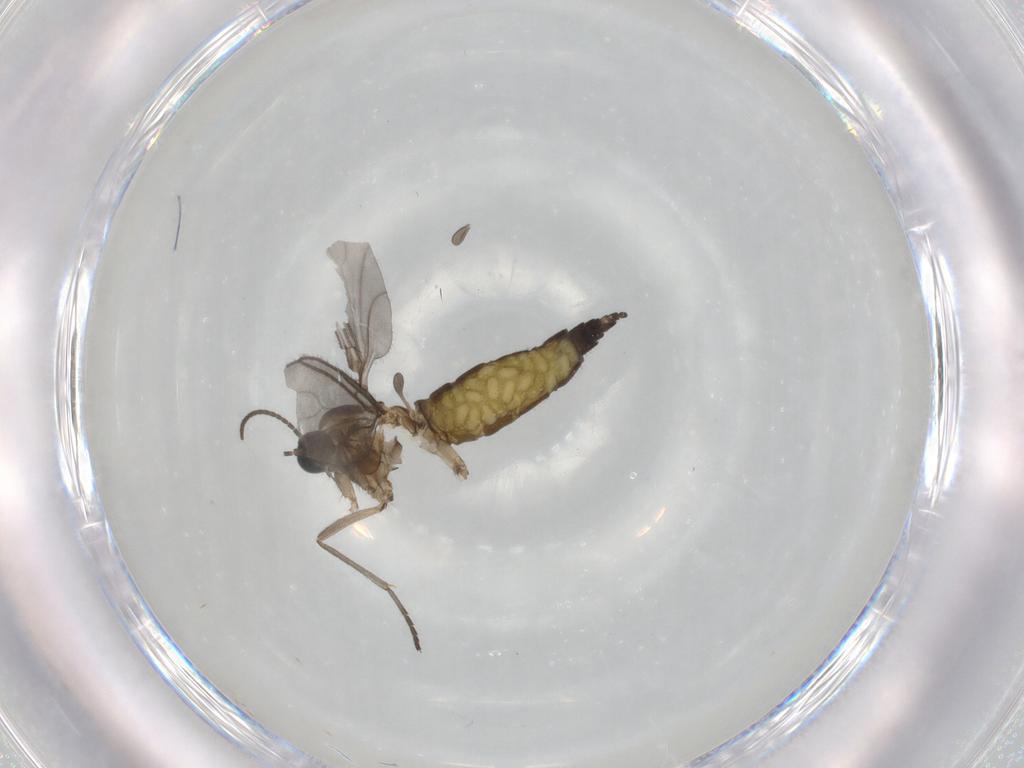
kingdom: Animalia
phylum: Arthropoda
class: Insecta
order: Diptera
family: Sciaridae
